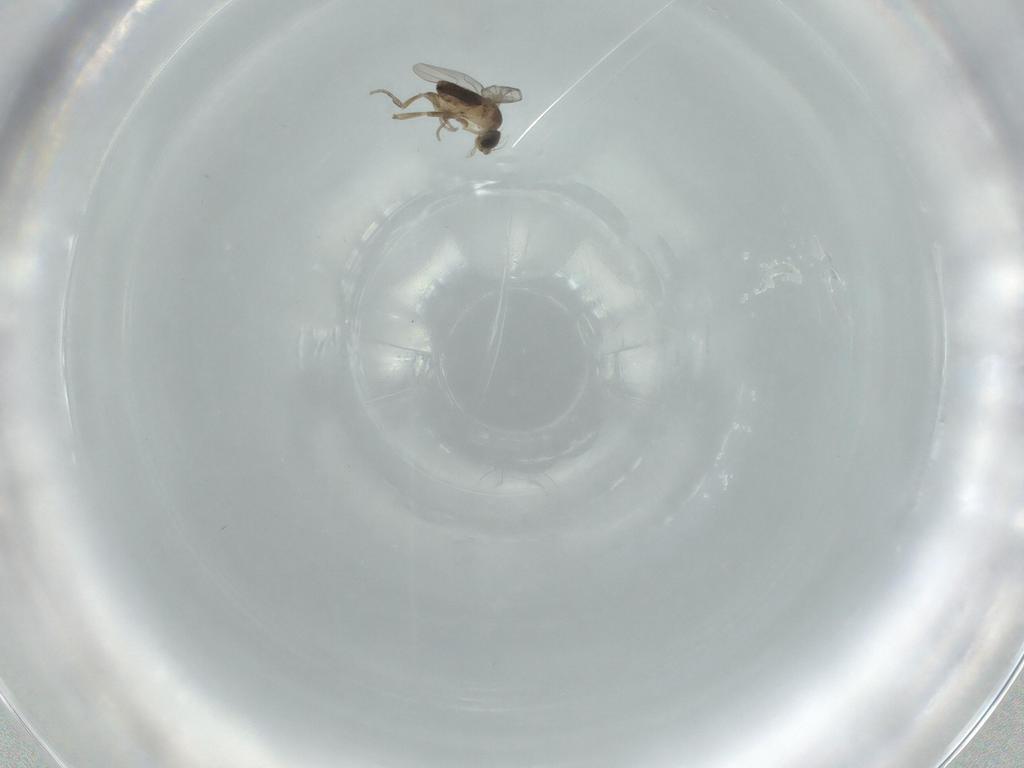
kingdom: Animalia
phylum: Arthropoda
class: Insecta
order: Diptera
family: Phoridae
